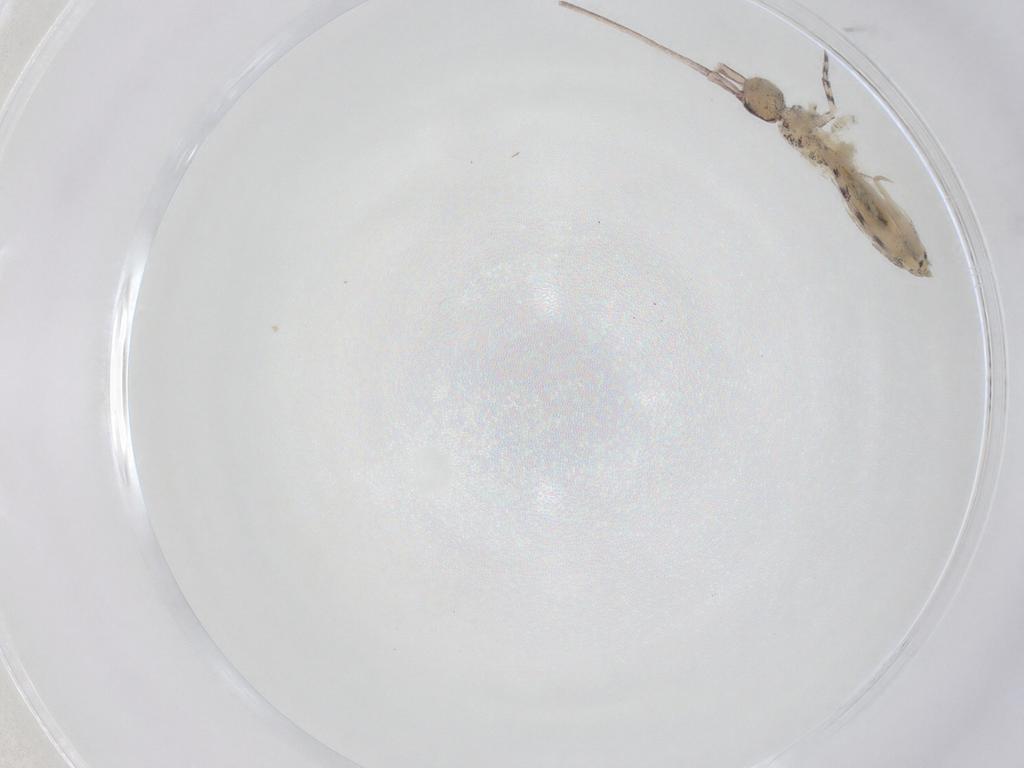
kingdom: Animalia
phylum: Arthropoda
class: Collembola
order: Entomobryomorpha
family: Entomobryidae
